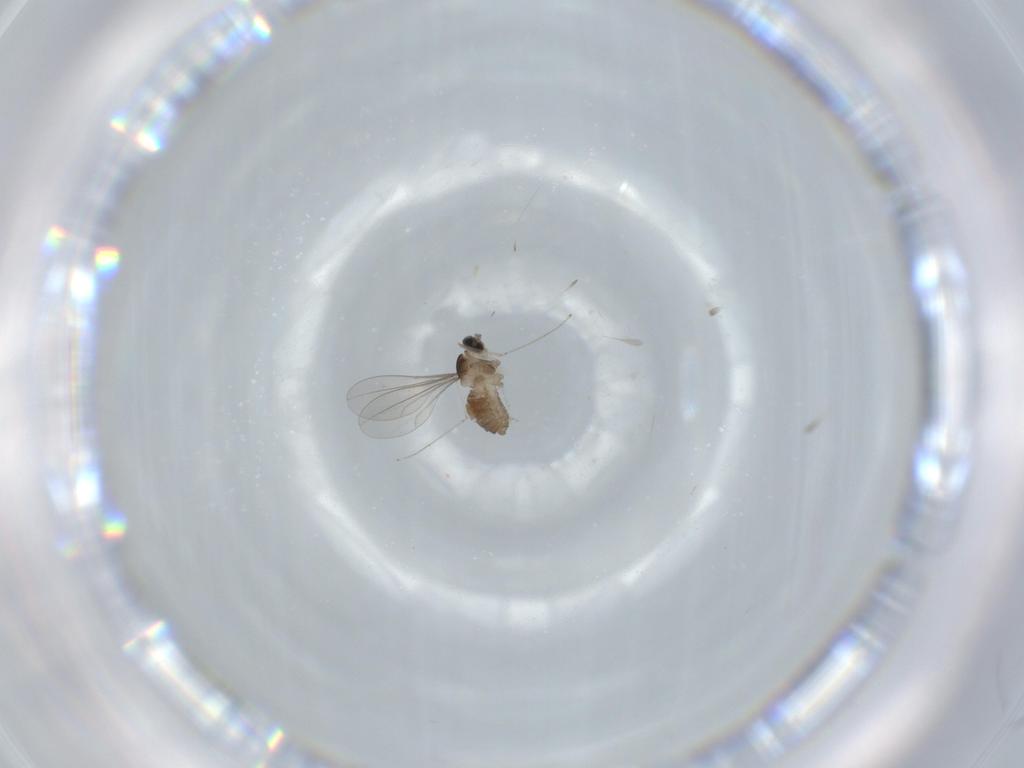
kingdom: Animalia
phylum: Arthropoda
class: Insecta
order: Diptera
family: Cecidomyiidae
